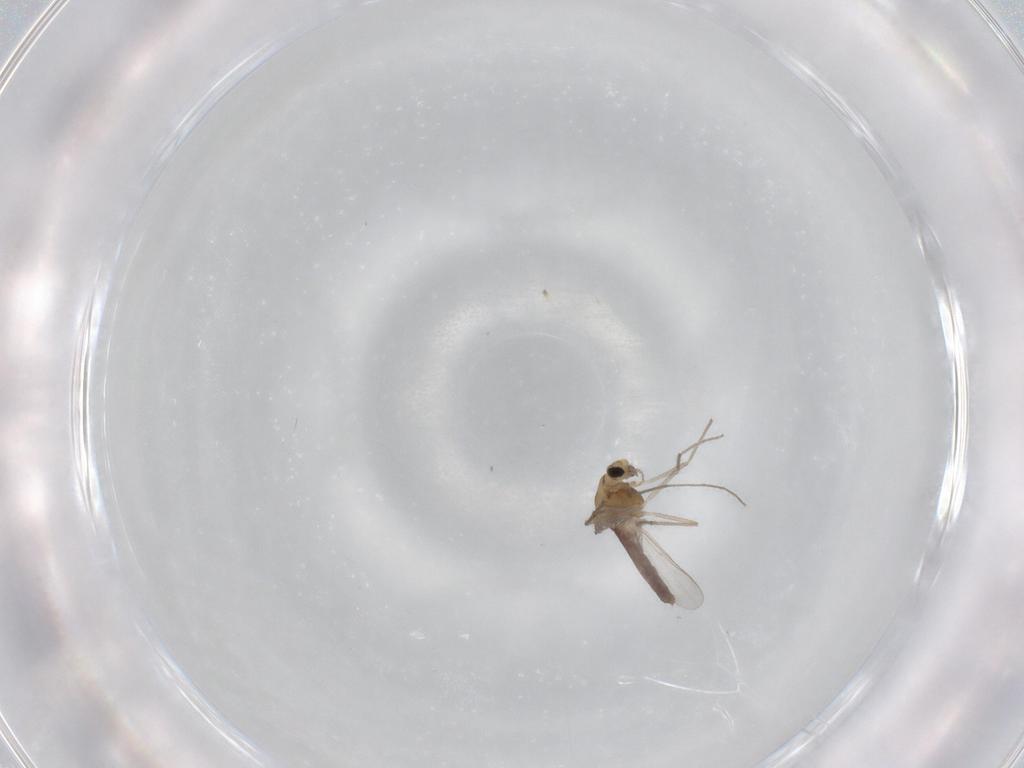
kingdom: Animalia
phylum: Arthropoda
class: Insecta
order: Diptera
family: Chironomidae
